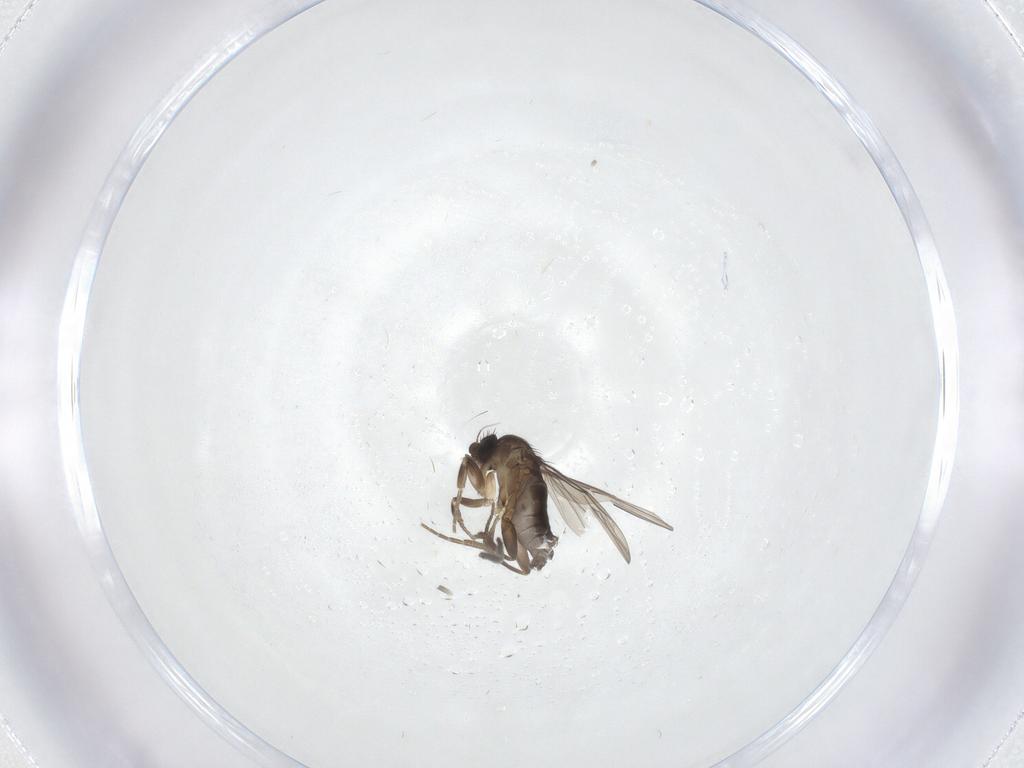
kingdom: Animalia
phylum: Arthropoda
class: Insecta
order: Diptera
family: Sciaridae
